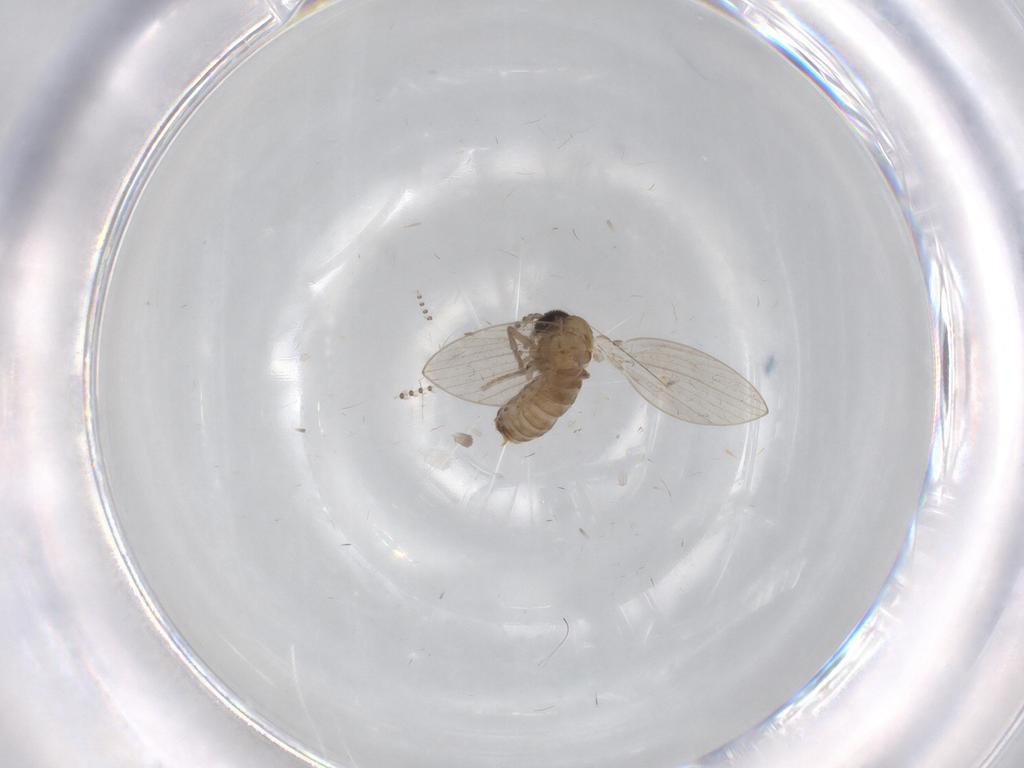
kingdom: Animalia
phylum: Arthropoda
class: Insecta
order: Diptera
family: Psychodidae
